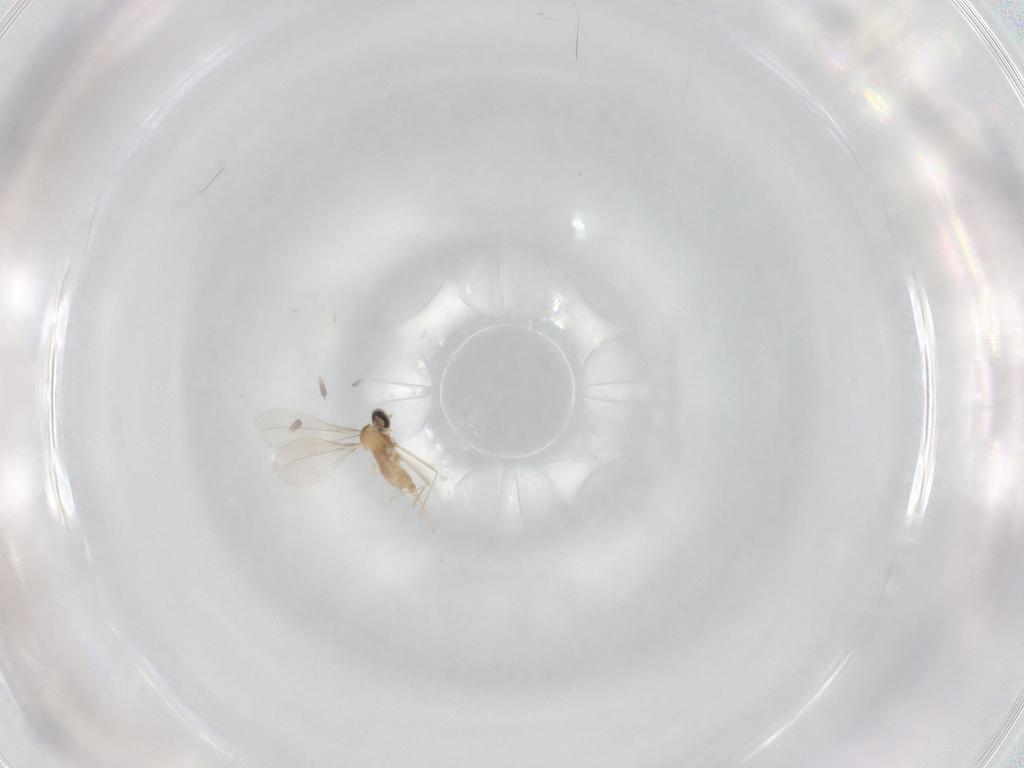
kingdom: Animalia
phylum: Arthropoda
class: Insecta
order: Diptera
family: Cecidomyiidae
